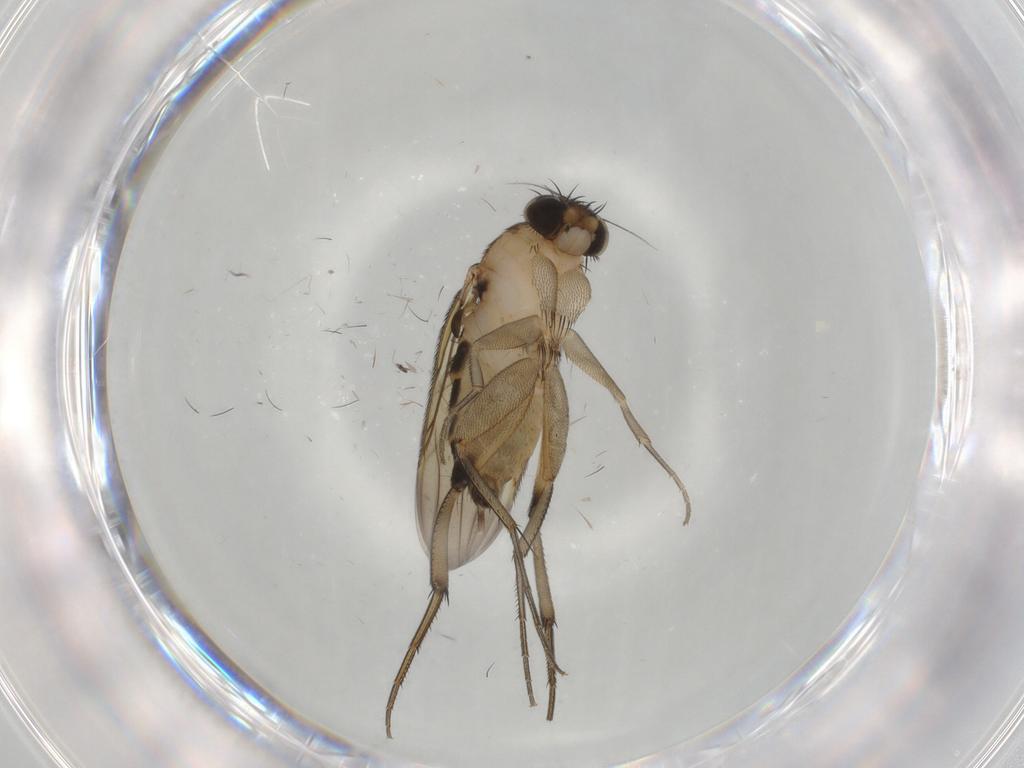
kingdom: Animalia
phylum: Arthropoda
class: Insecta
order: Diptera
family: Phoridae
